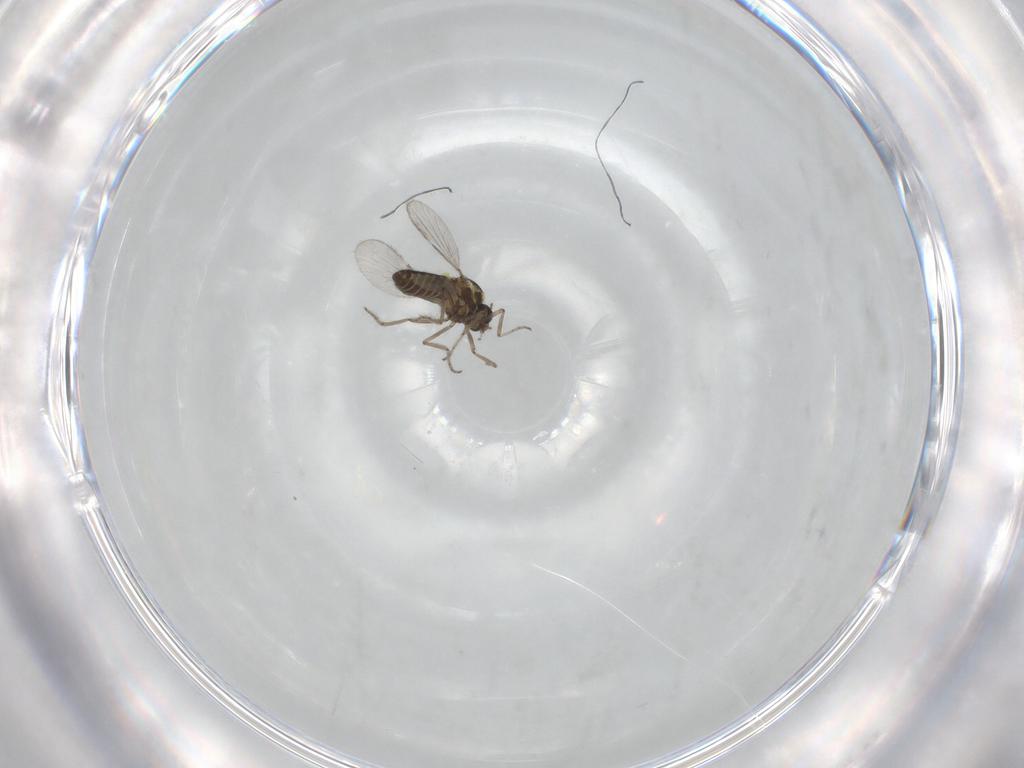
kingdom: Animalia
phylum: Arthropoda
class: Insecta
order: Diptera
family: Ceratopogonidae
